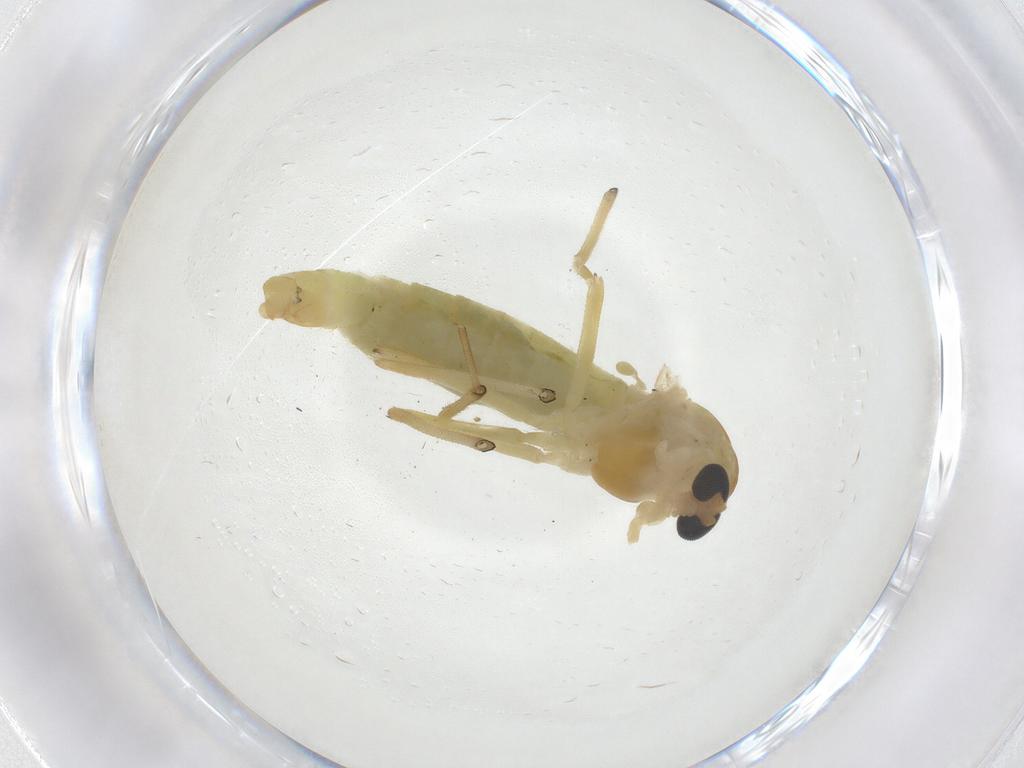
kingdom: Animalia
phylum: Arthropoda
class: Insecta
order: Diptera
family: Chironomidae
